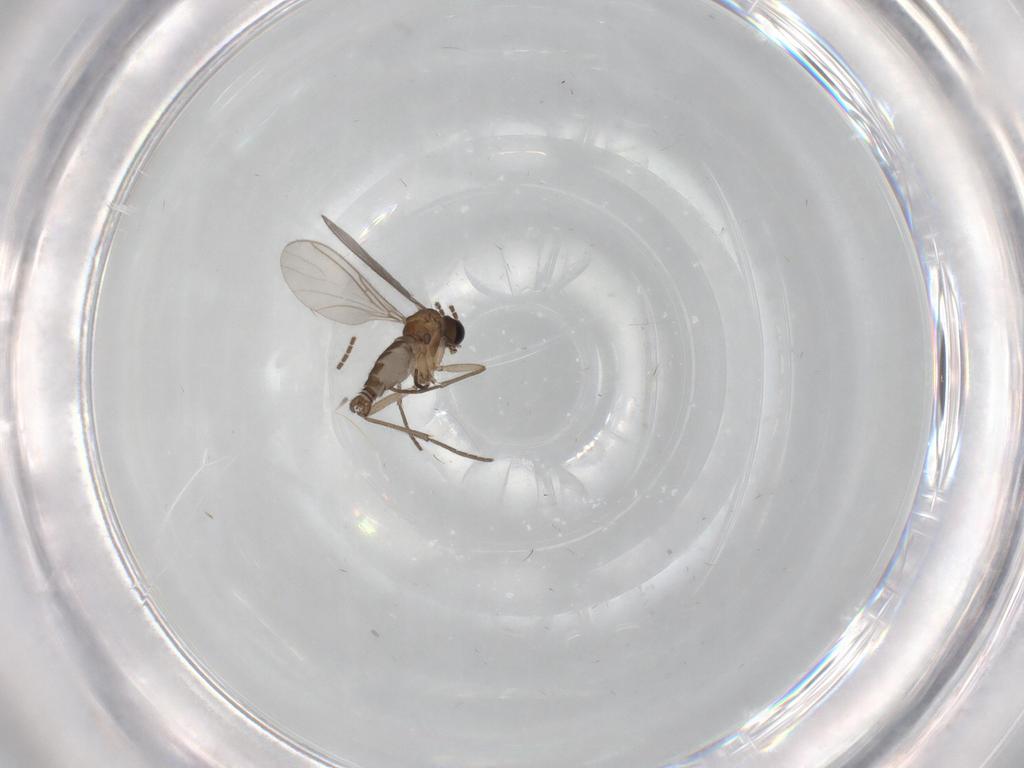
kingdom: Animalia
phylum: Arthropoda
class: Insecta
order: Diptera
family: Sciaridae
